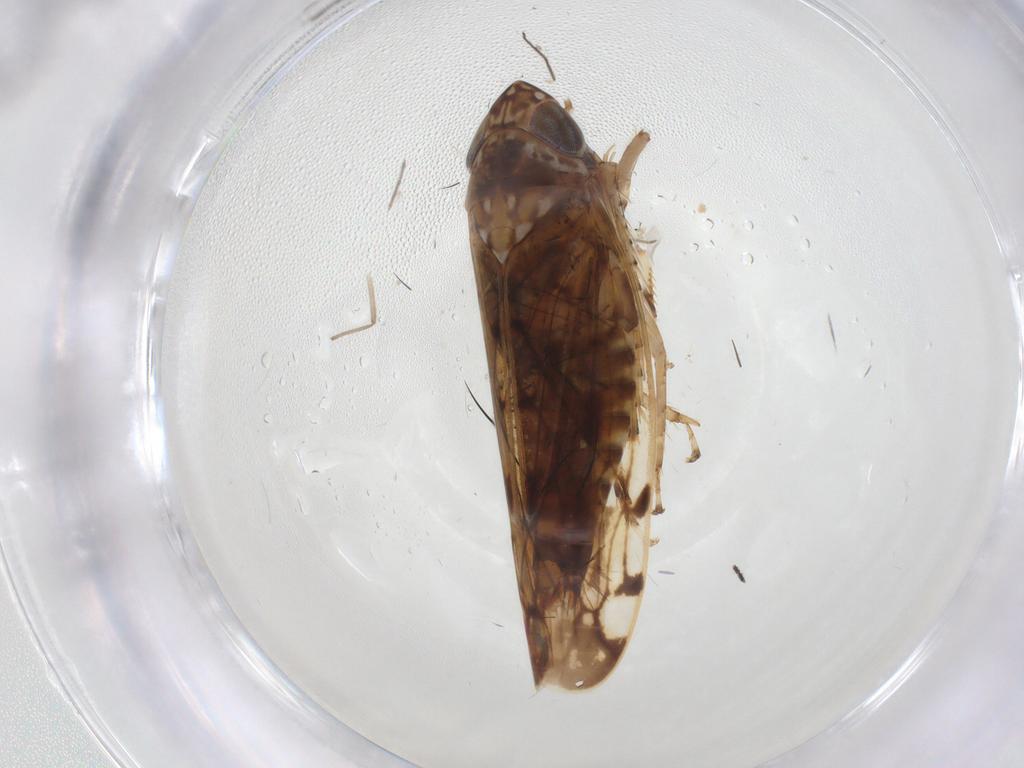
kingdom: Animalia
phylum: Arthropoda
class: Insecta
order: Hemiptera
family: Cicadellidae
